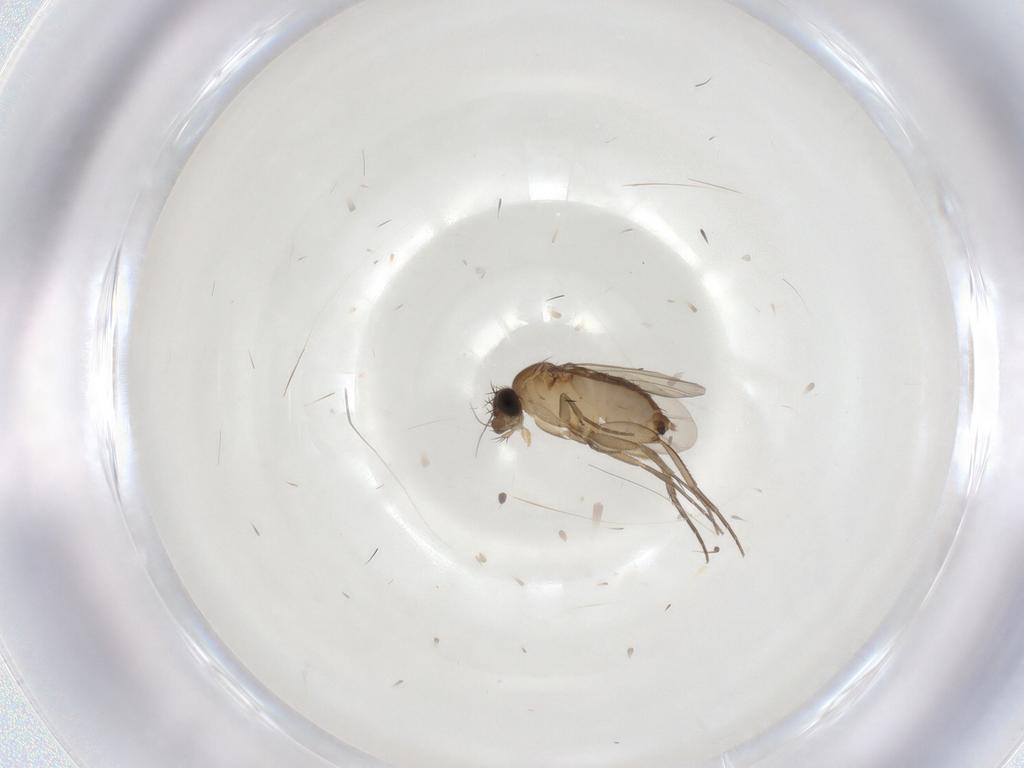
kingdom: Animalia
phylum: Arthropoda
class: Insecta
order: Diptera
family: Phoridae
